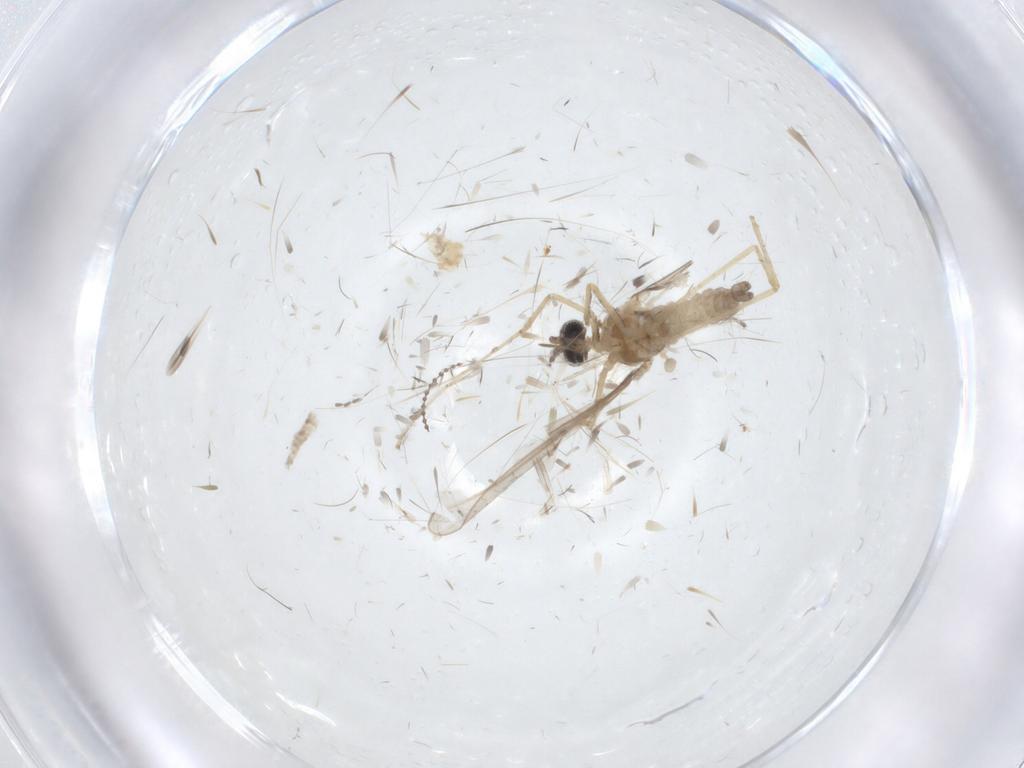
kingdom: Animalia
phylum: Arthropoda
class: Insecta
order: Diptera
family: Cecidomyiidae
